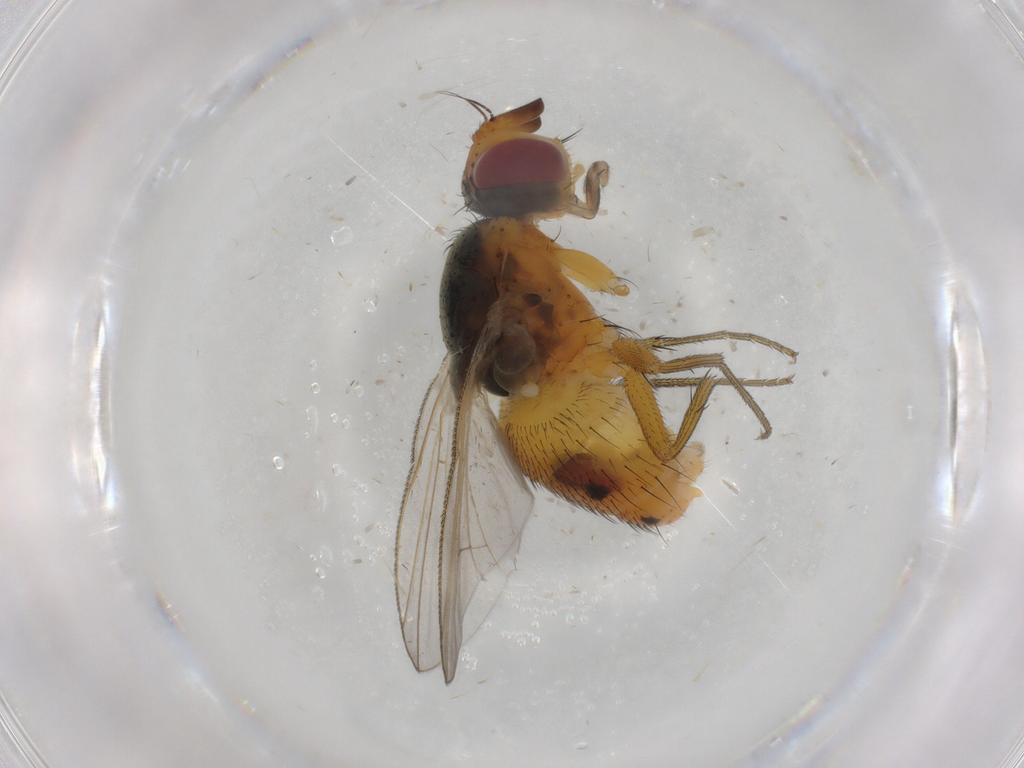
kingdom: Animalia
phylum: Arthropoda
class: Insecta
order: Diptera
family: Muscidae
